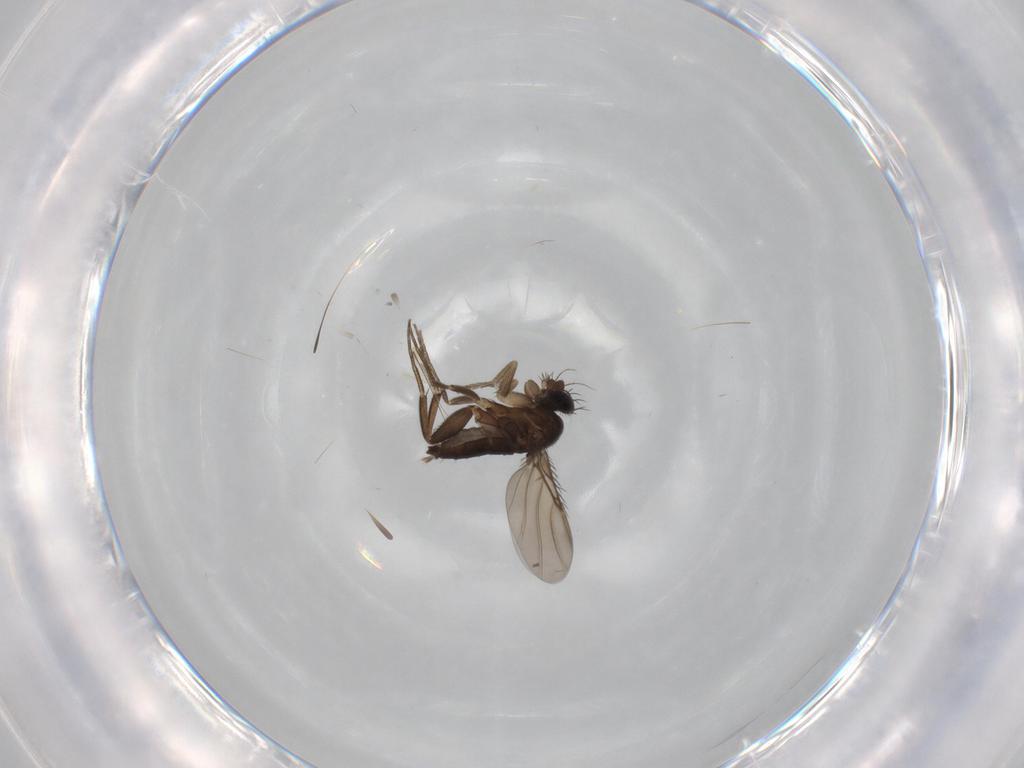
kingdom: Animalia
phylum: Arthropoda
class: Insecta
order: Diptera
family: Phoridae
